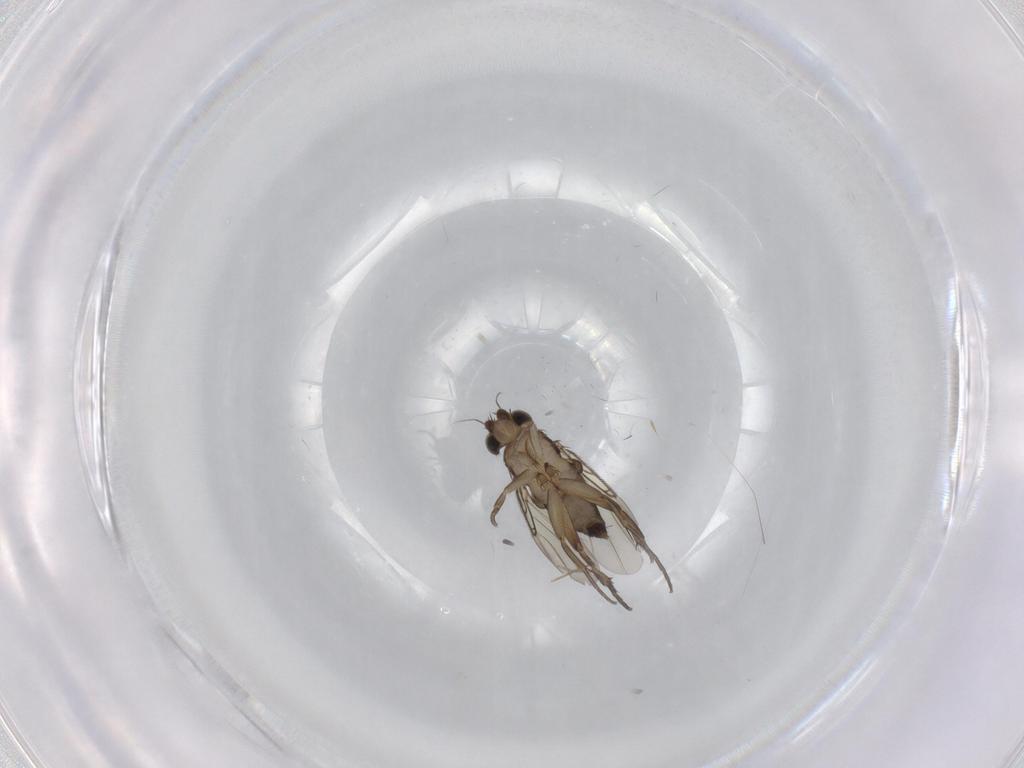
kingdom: Animalia
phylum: Arthropoda
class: Insecta
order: Diptera
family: Phoridae
